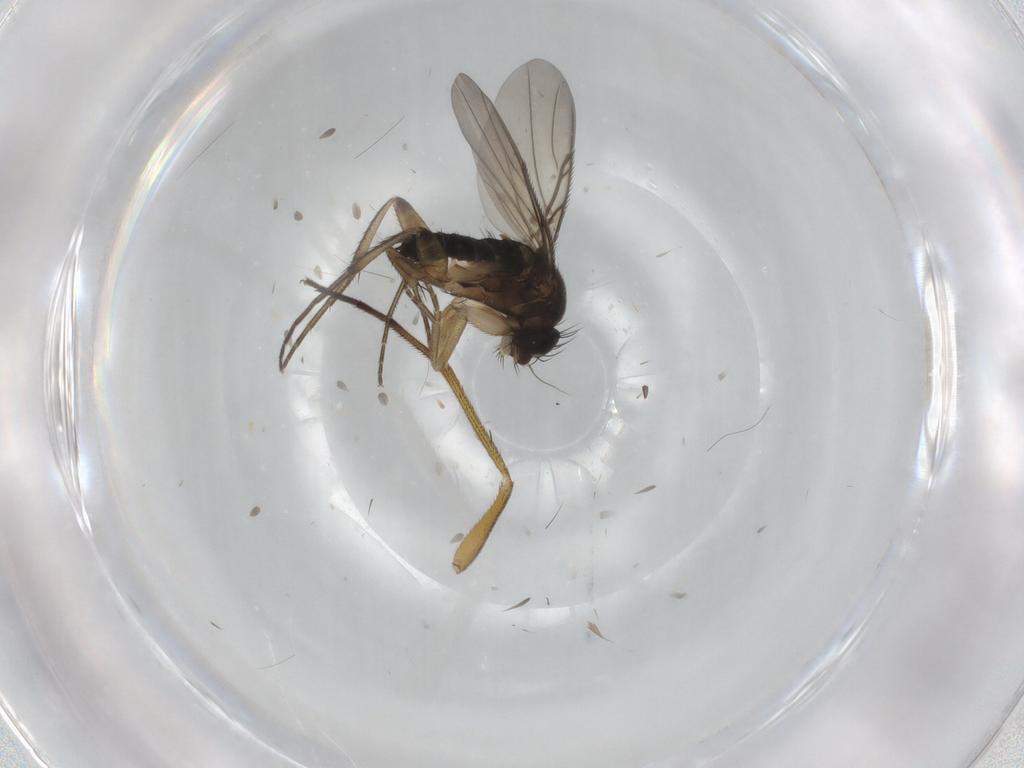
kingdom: Animalia
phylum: Arthropoda
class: Insecta
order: Diptera
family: Phoridae
